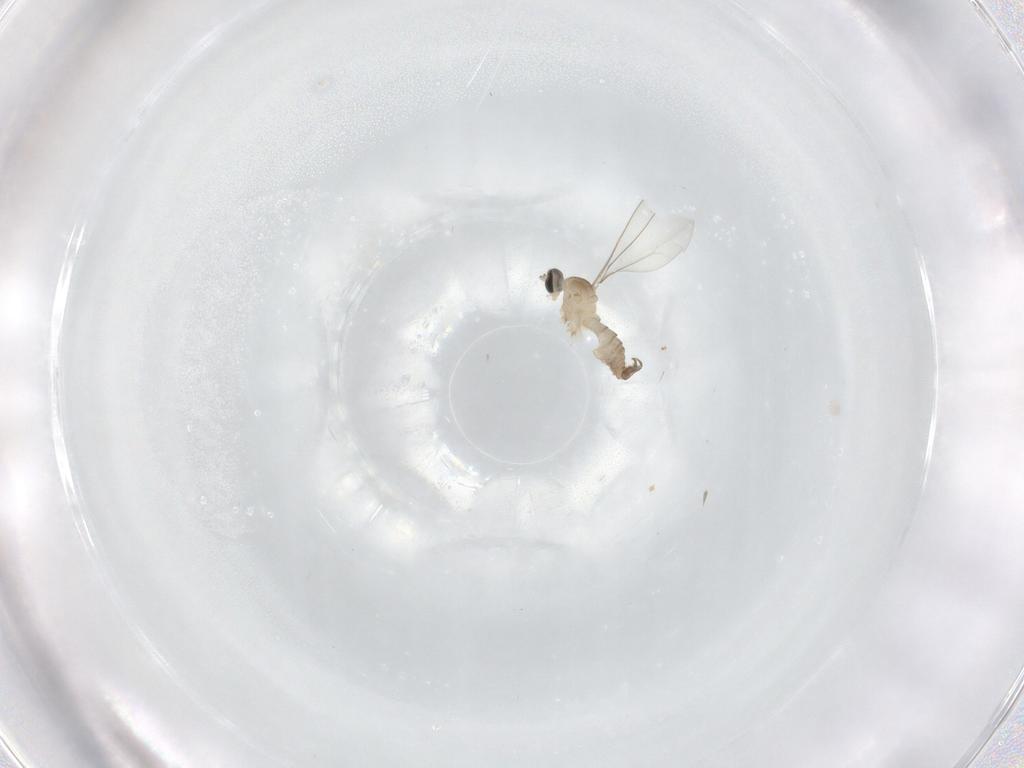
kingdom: Animalia
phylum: Arthropoda
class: Insecta
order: Diptera
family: Cecidomyiidae
